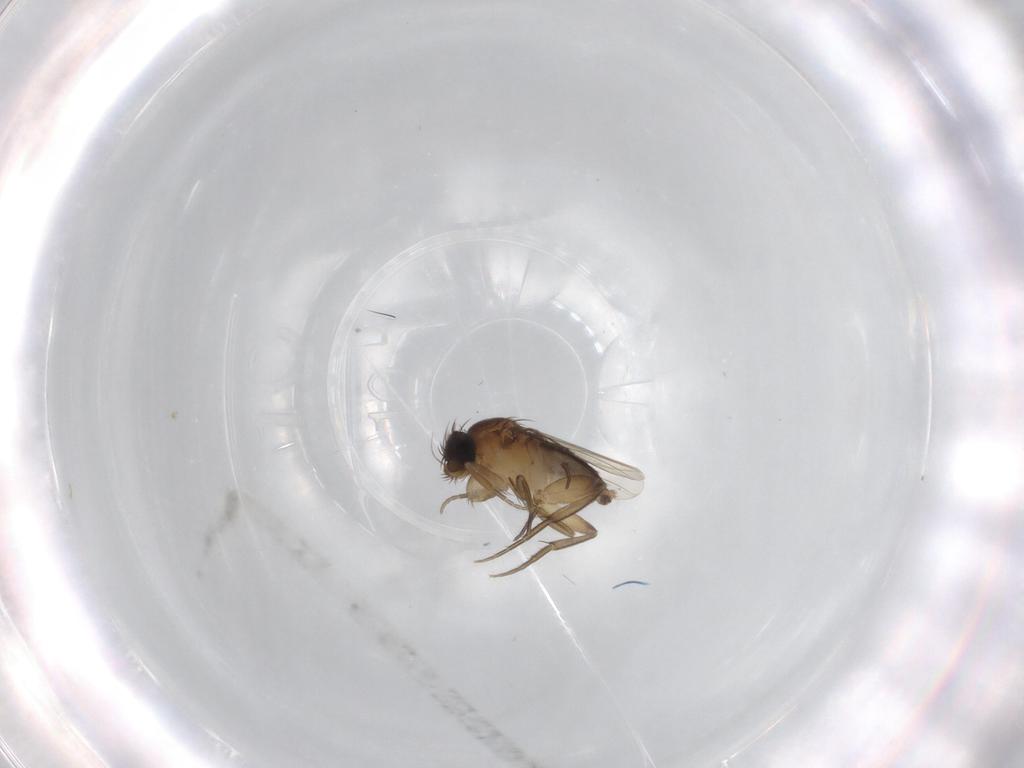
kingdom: Animalia
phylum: Arthropoda
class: Insecta
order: Diptera
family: Phoridae
